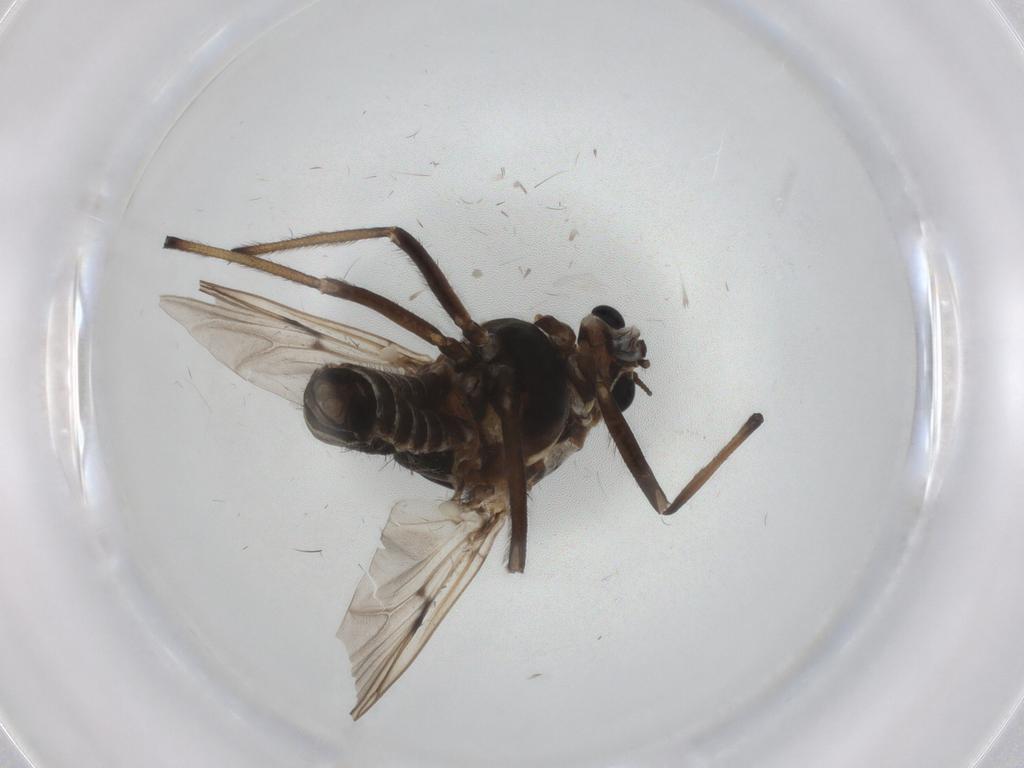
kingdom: Animalia
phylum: Arthropoda
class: Insecta
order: Diptera
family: Ceratopogonidae
